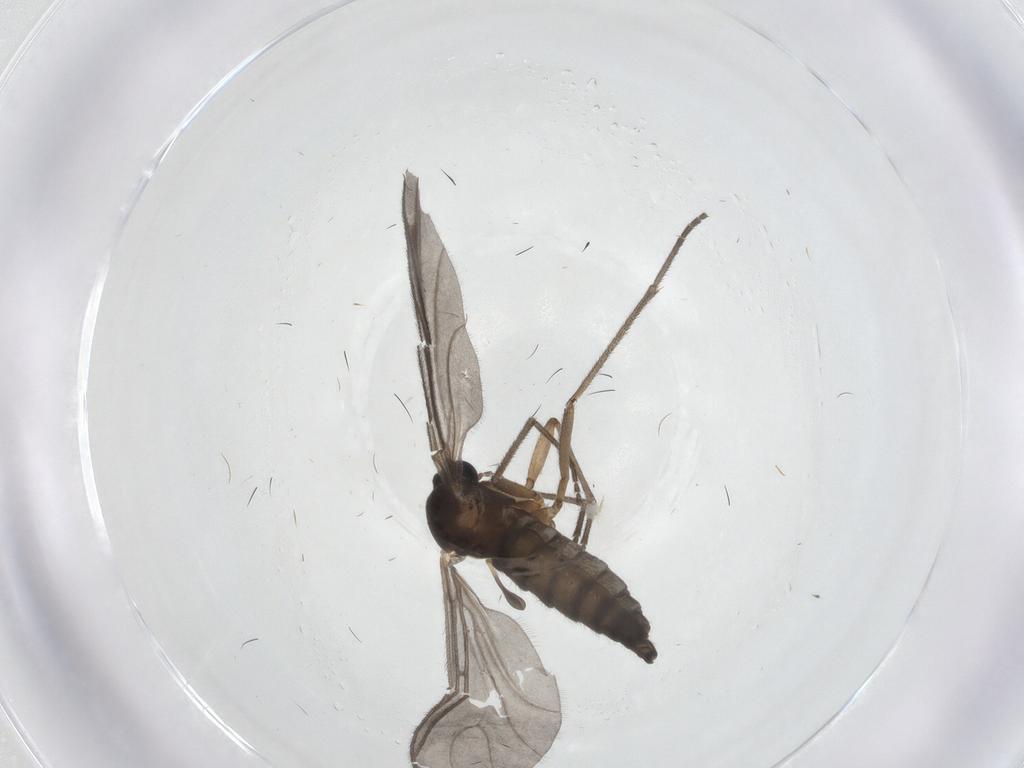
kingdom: Animalia
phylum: Arthropoda
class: Insecta
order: Diptera
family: Sciaridae
